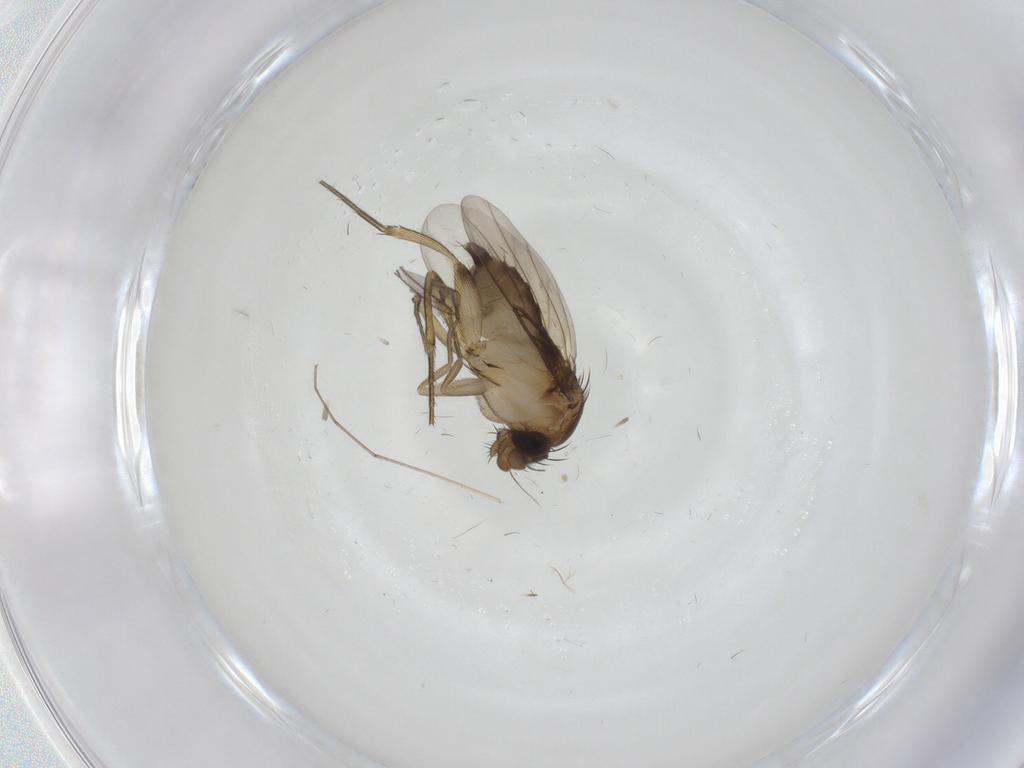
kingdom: Animalia
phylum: Arthropoda
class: Insecta
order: Diptera
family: Phoridae
